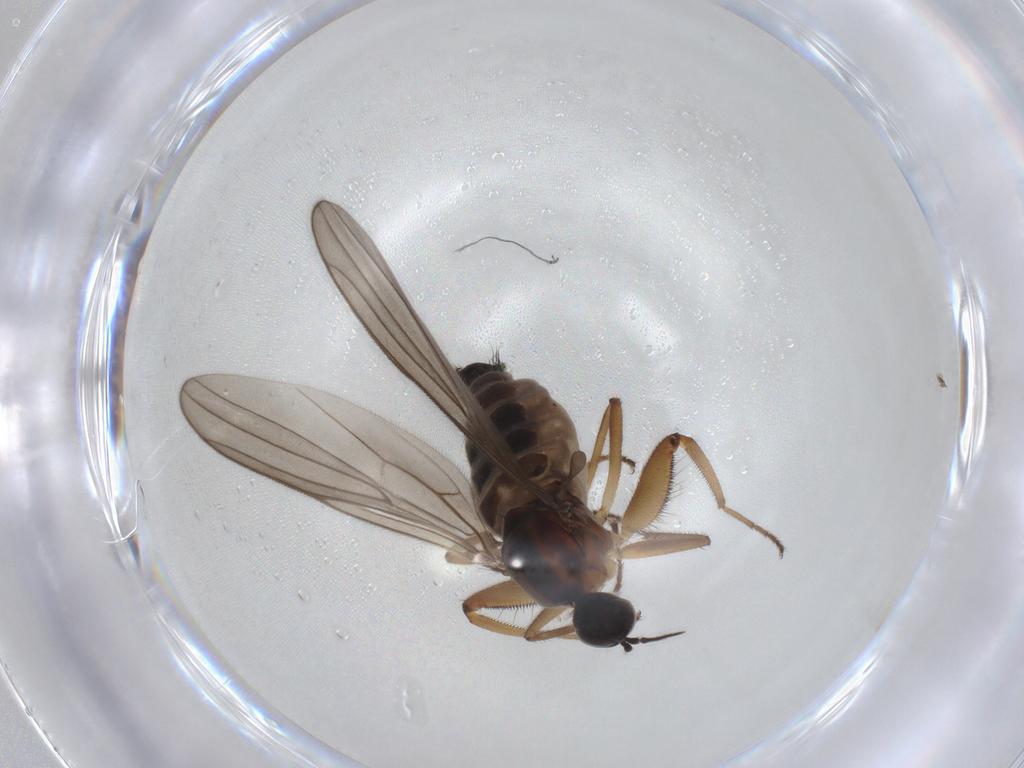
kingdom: Animalia
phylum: Arthropoda
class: Insecta
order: Diptera
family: Hybotidae
